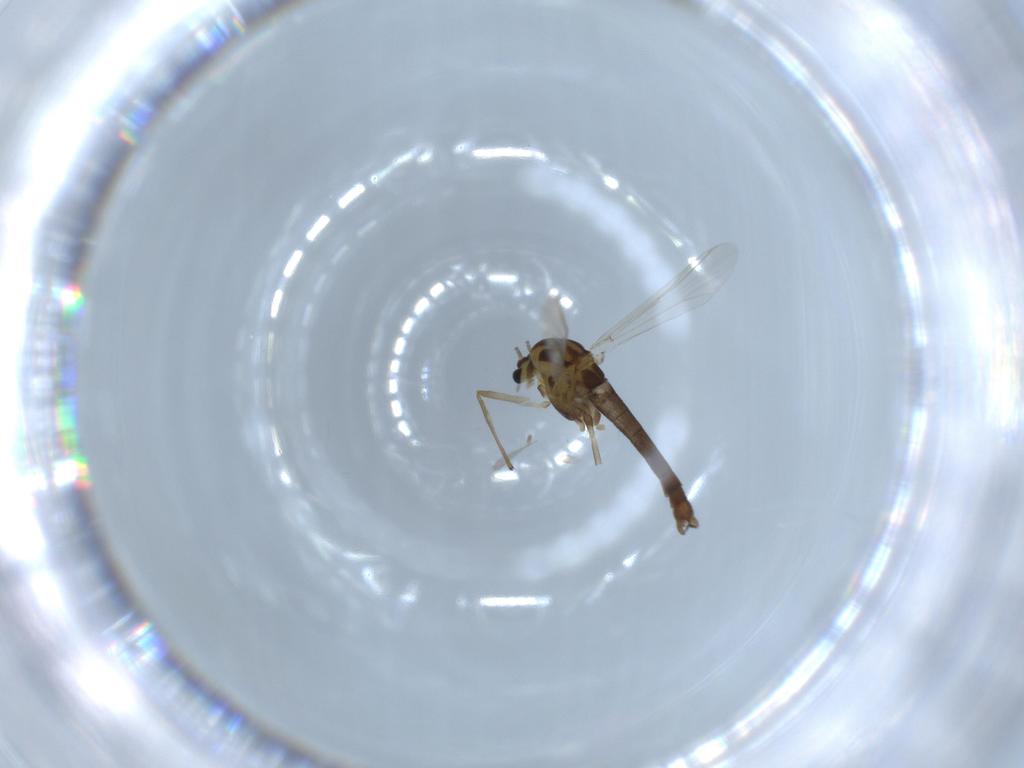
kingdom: Animalia
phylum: Arthropoda
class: Insecta
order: Diptera
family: Chironomidae
